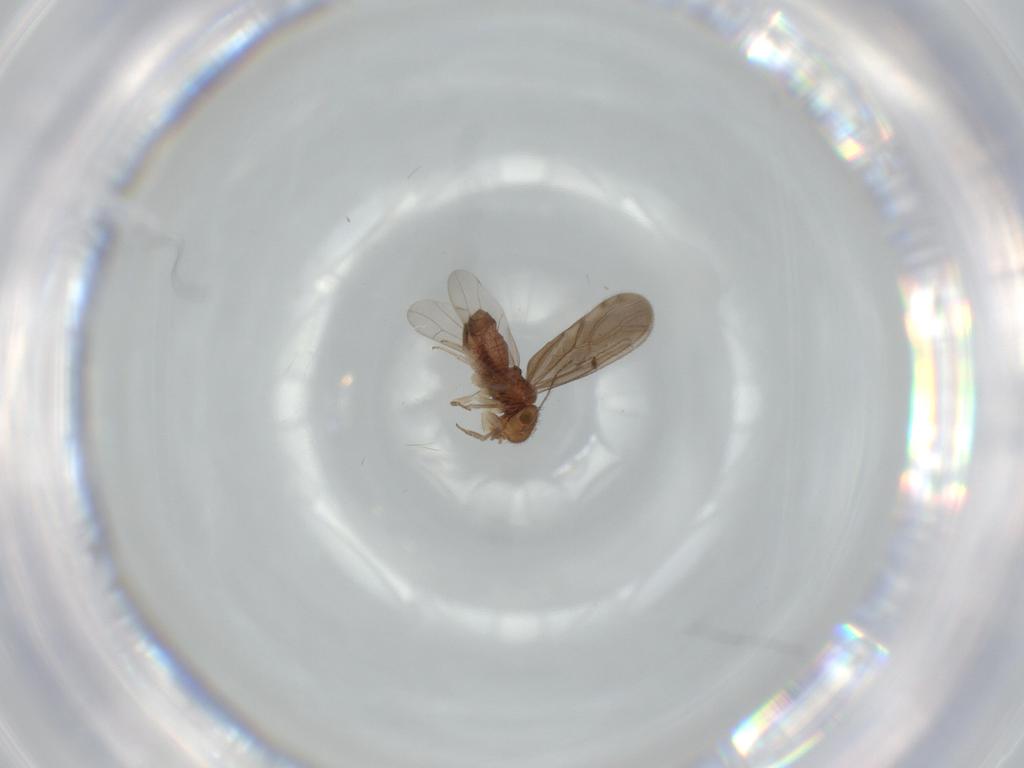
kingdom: Animalia
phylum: Arthropoda
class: Insecta
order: Psocodea
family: Ectopsocidae
